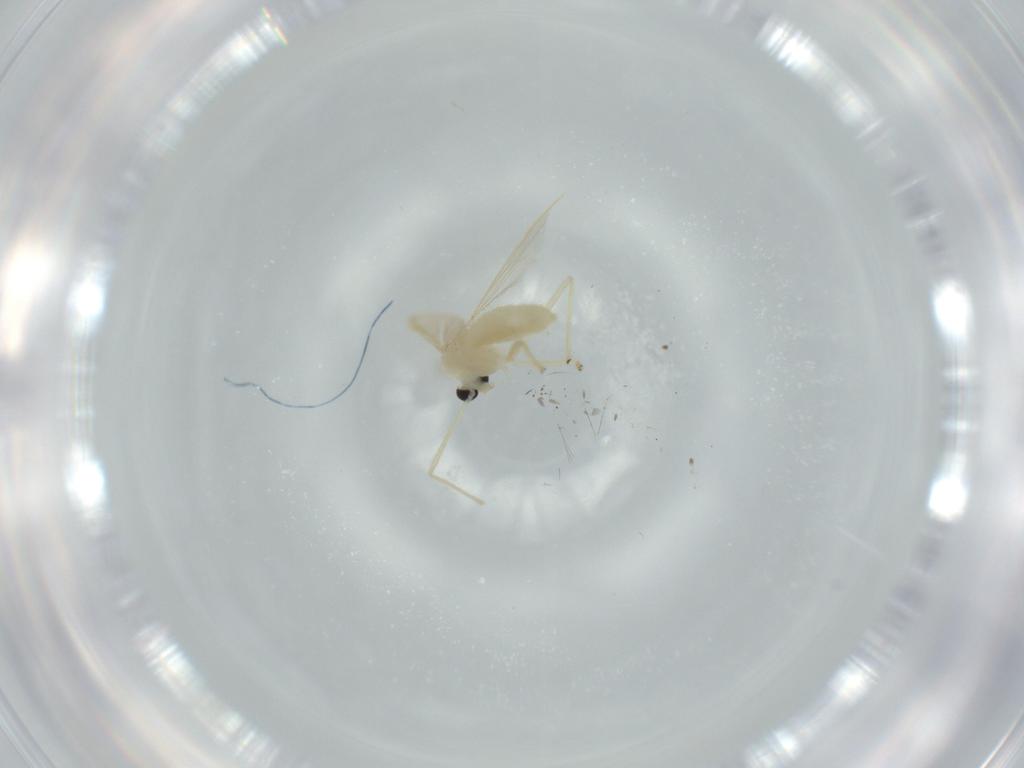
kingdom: Animalia
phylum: Arthropoda
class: Insecta
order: Diptera
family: Chironomidae
